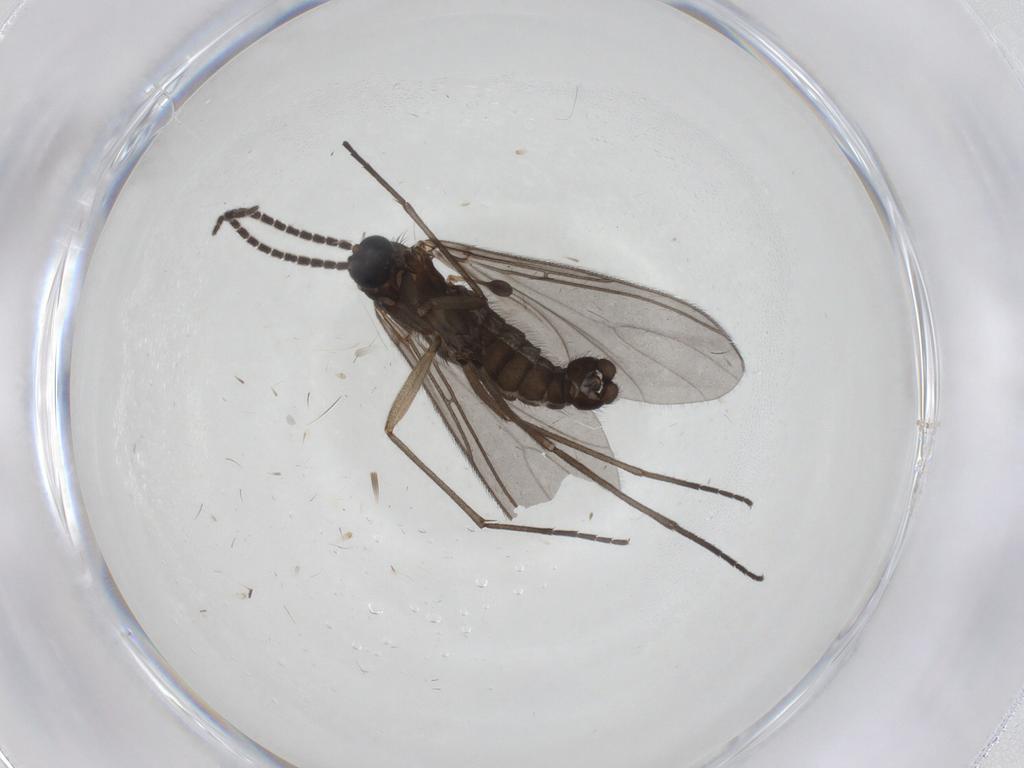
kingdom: Animalia
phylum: Arthropoda
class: Insecta
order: Diptera
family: Sciaridae
